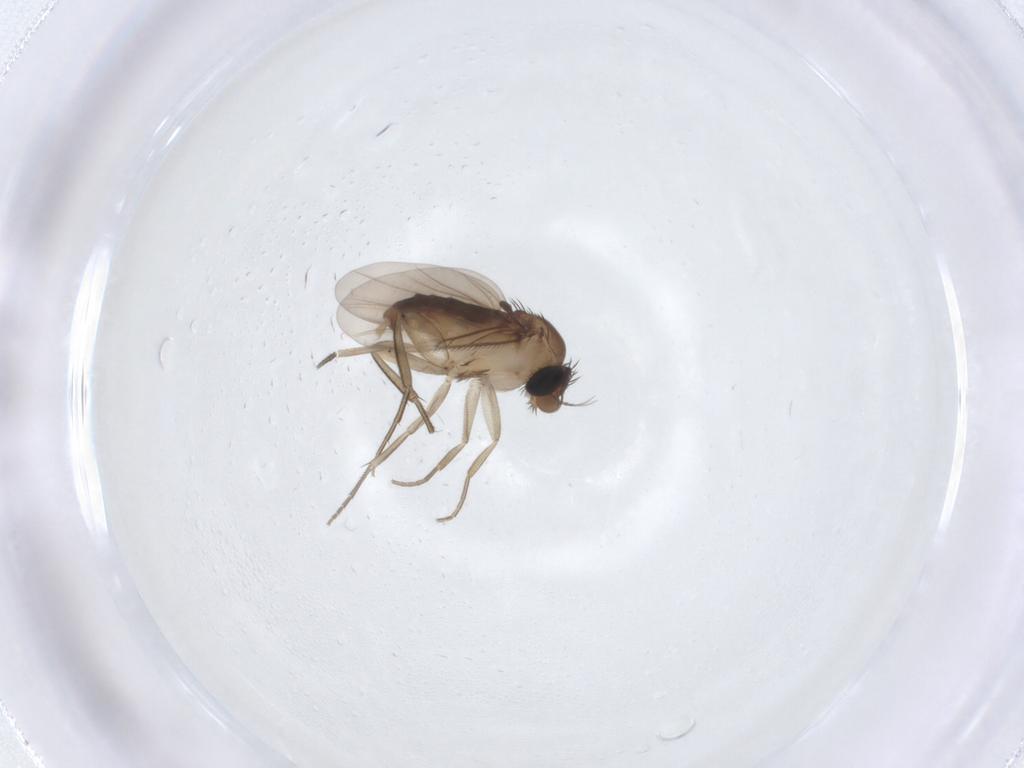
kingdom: Animalia
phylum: Arthropoda
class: Insecta
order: Diptera
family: Phoridae
